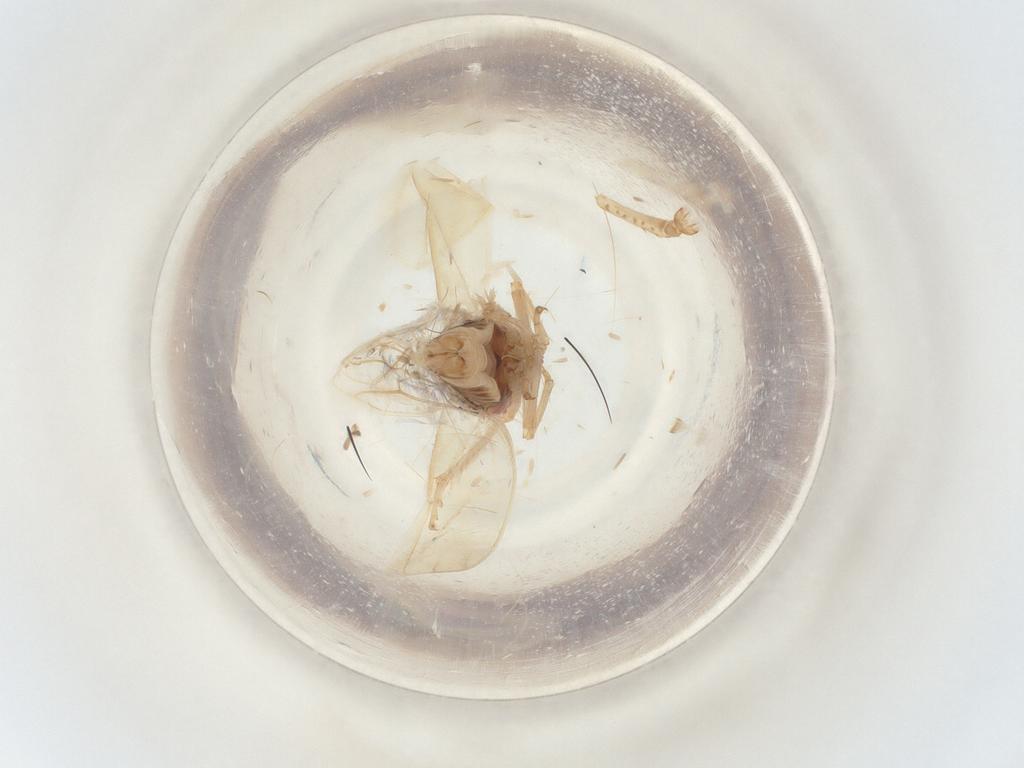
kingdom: Animalia
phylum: Arthropoda
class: Insecta
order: Hemiptera
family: Cicadellidae
